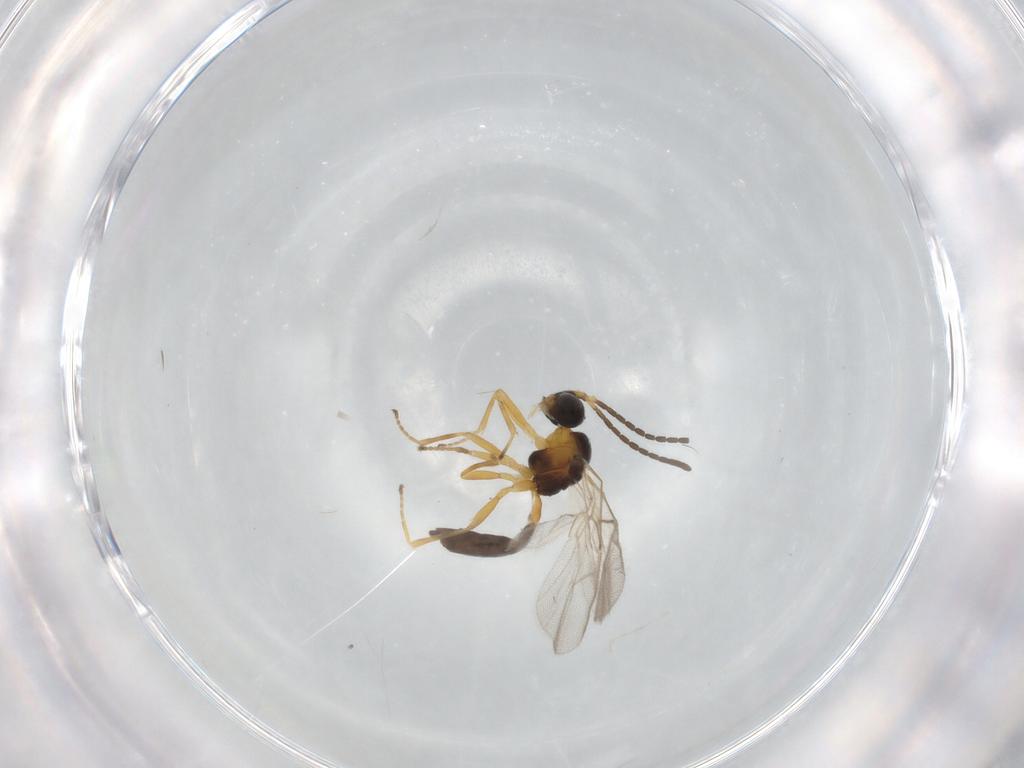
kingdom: Animalia
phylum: Arthropoda
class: Insecta
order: Hymenoptera
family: Braconidae
